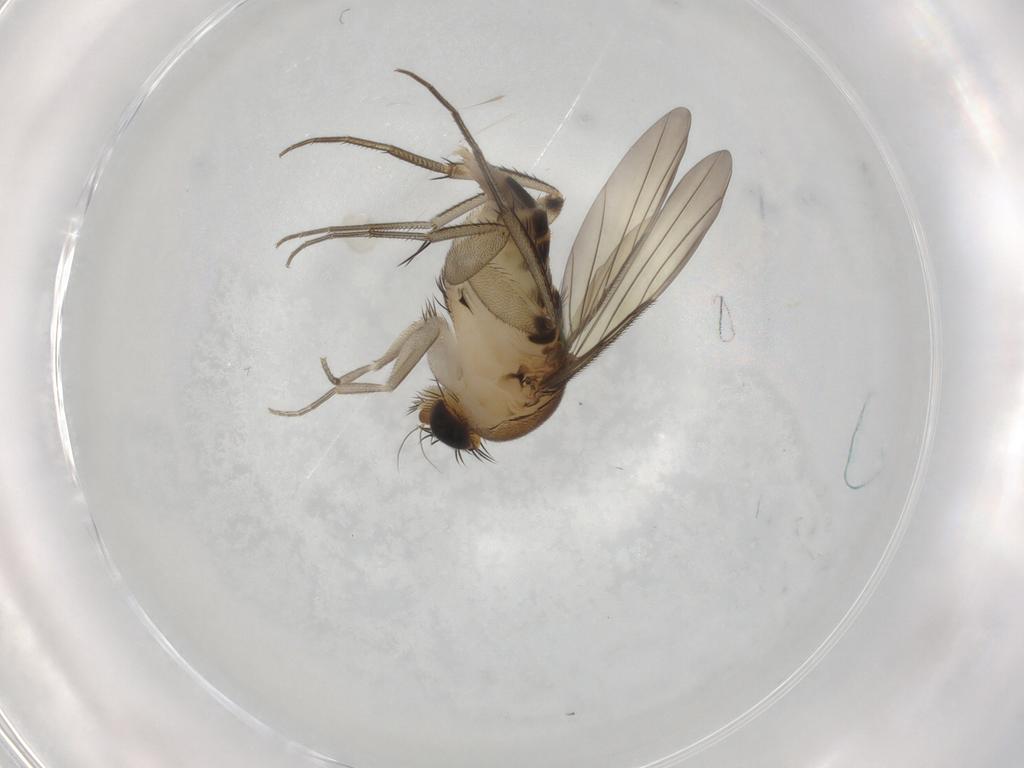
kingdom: Animalia
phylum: Arthropoda
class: Insecta
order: Diptera
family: Phoridae
